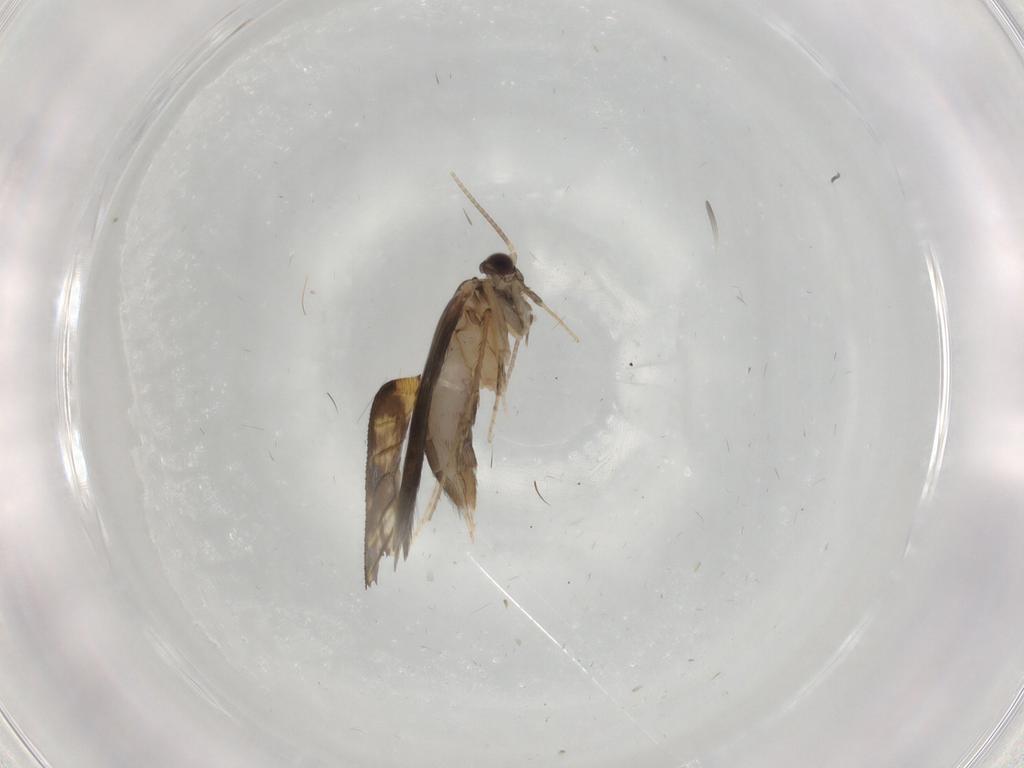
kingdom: Animalia
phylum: Arthropoda
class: Insecta
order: Trichoptera
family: Hydroptilidae
